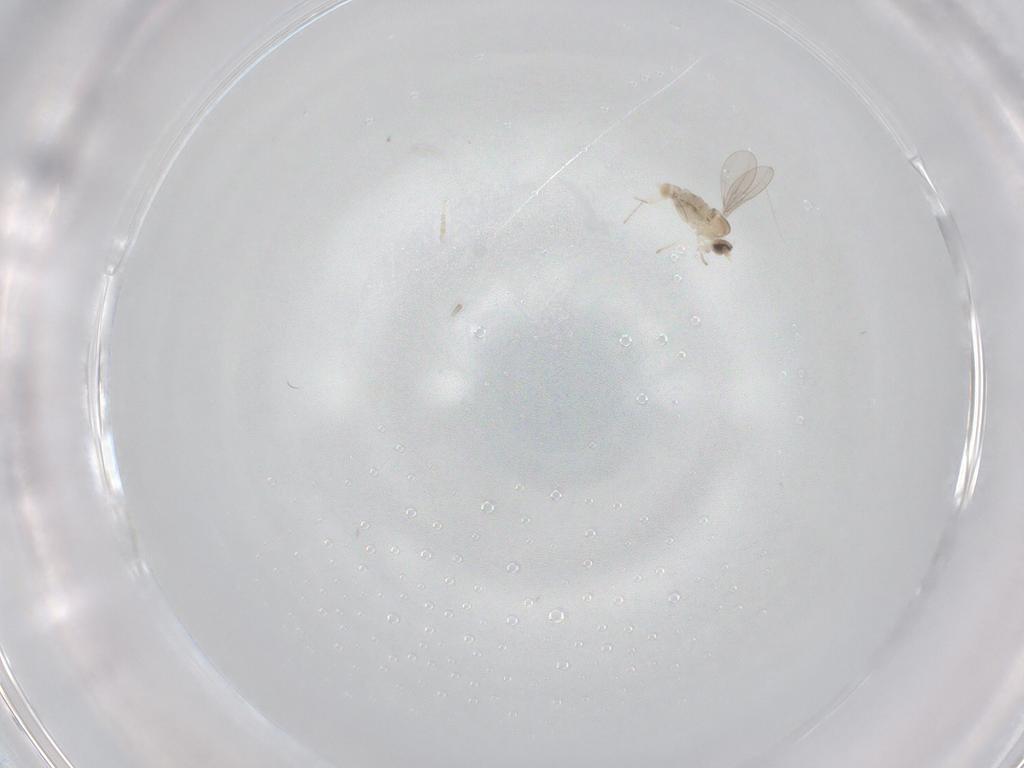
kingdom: Animalia
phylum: Arthropoda
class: Insecta
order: Diptera
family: Cecidomyiidae
